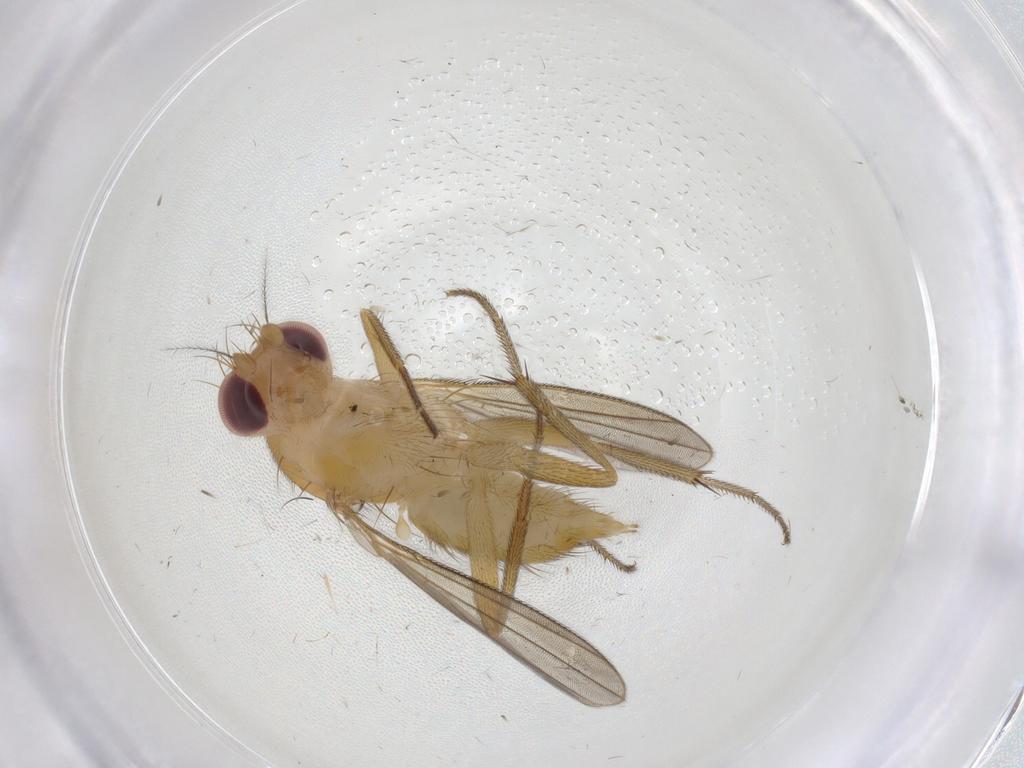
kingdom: Animalia
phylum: Arthropoda
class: Insecta
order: Diptera
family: Clusiidae
